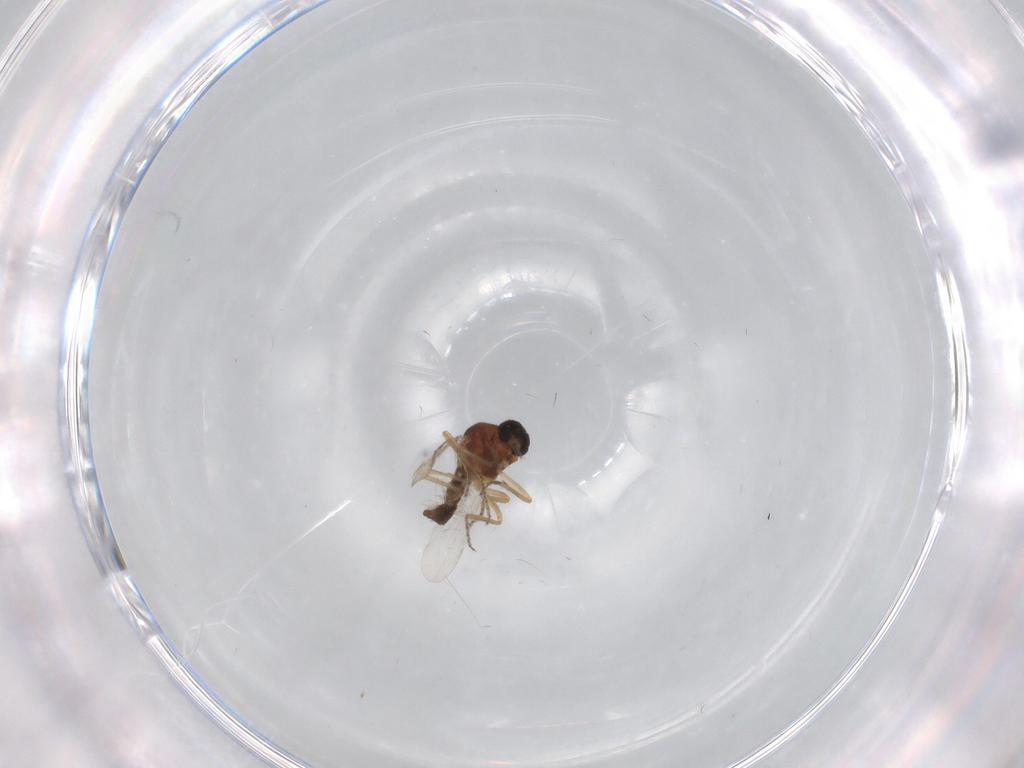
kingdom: Animalia
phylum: Arthropoda
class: Insecta
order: Diptera
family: Ceratopogonidae
